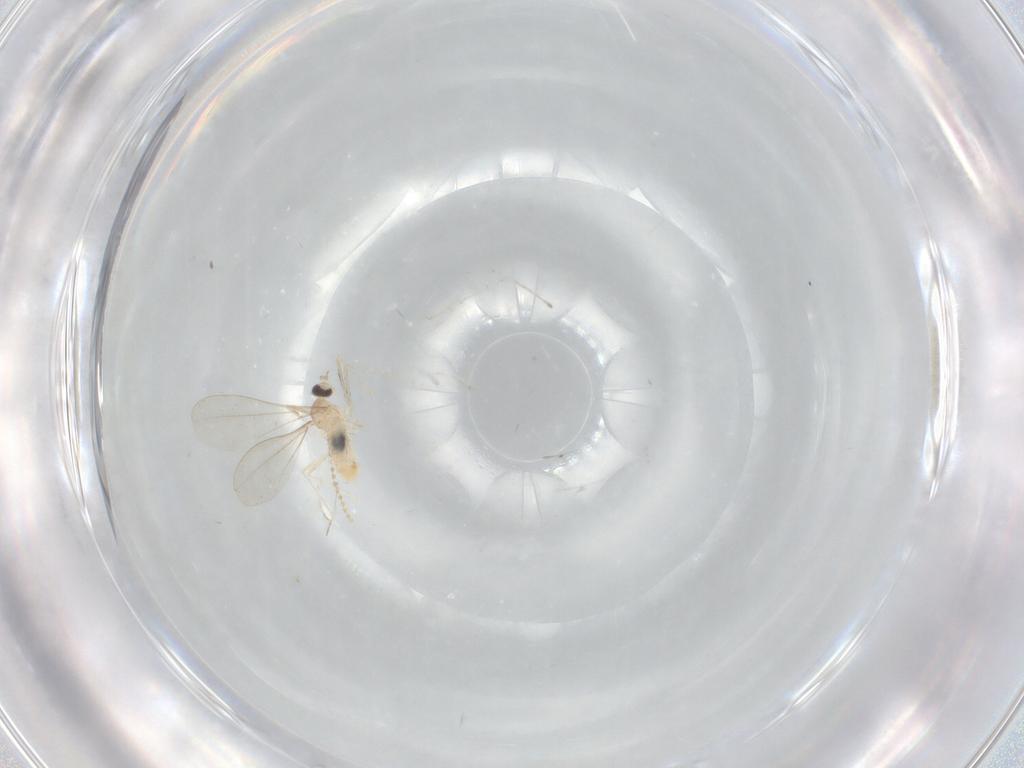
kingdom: Animalia
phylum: Arthropoda
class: Insecta
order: Diptera
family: Cecidomyiidae
